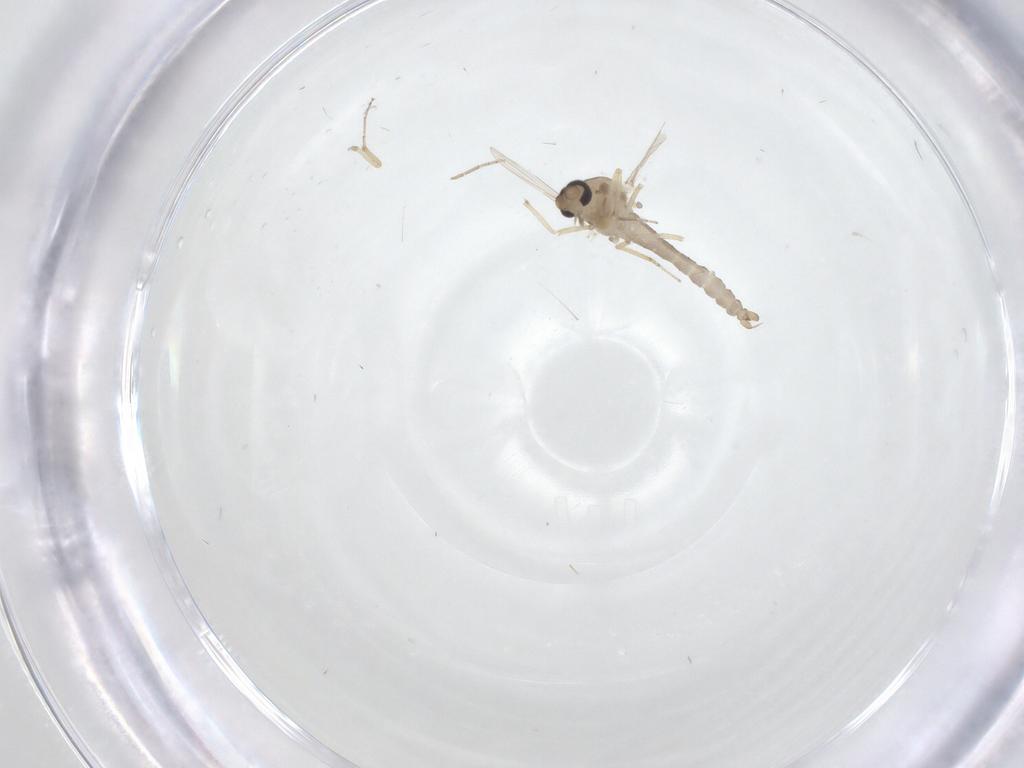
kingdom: Animalia
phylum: Arthropoda
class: Insecta
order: Diptera
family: Ceratopogonidae
